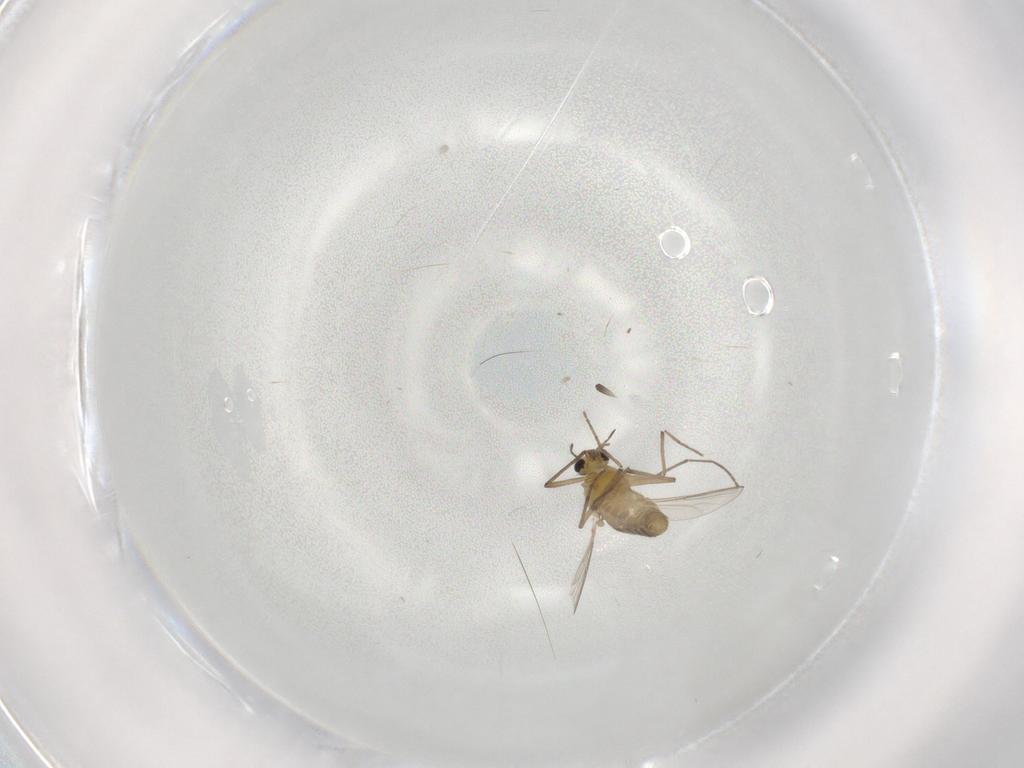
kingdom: Animalia
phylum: Arthropoda
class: Insecta
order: Diptera
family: Chironomidae
